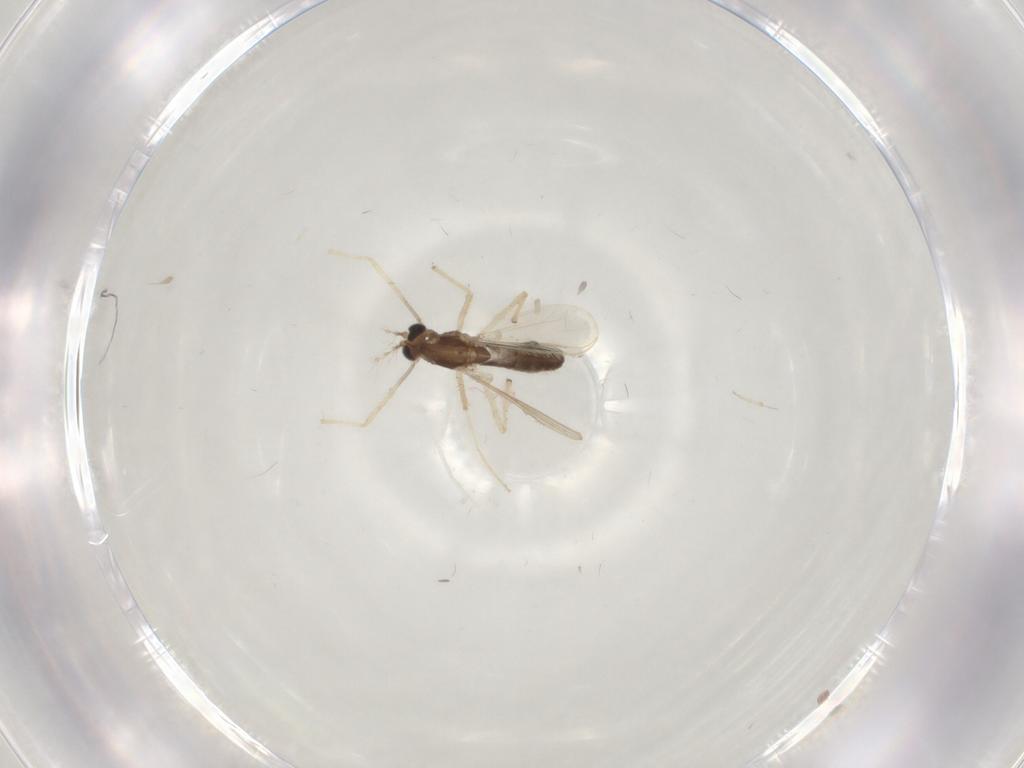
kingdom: Animalia
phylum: Arthropoda
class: Insecta
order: Diptera
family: Chironomidae
